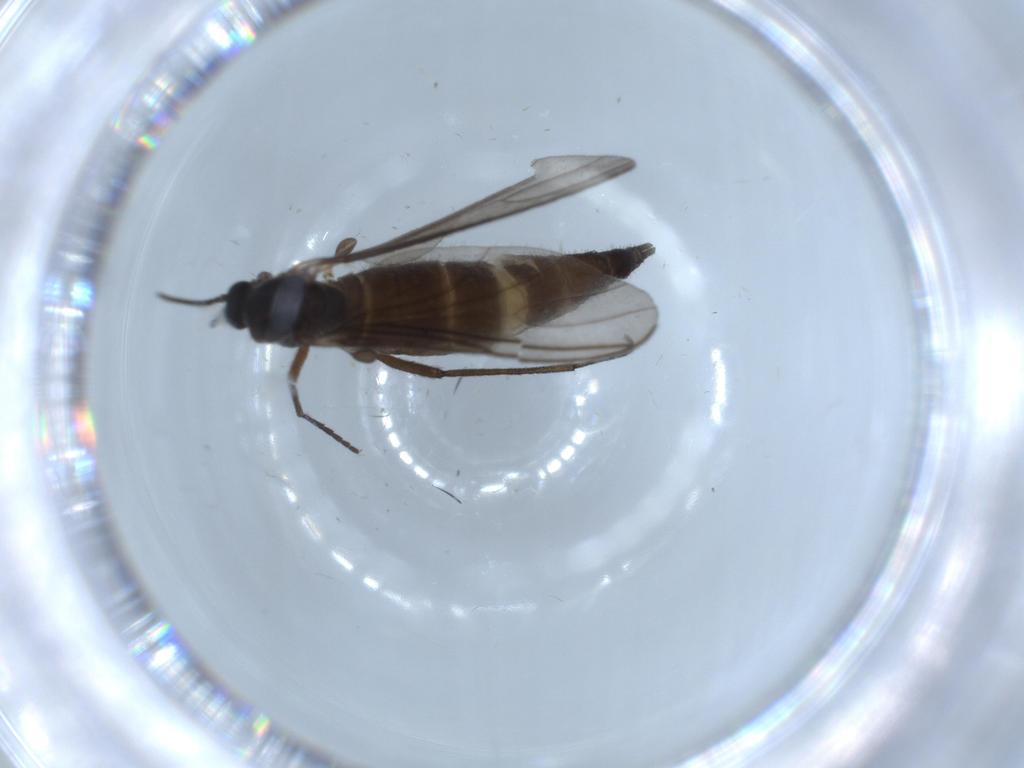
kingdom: Animalia
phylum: Arthropoda
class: Insecta
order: Diptera
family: Sciaridae
